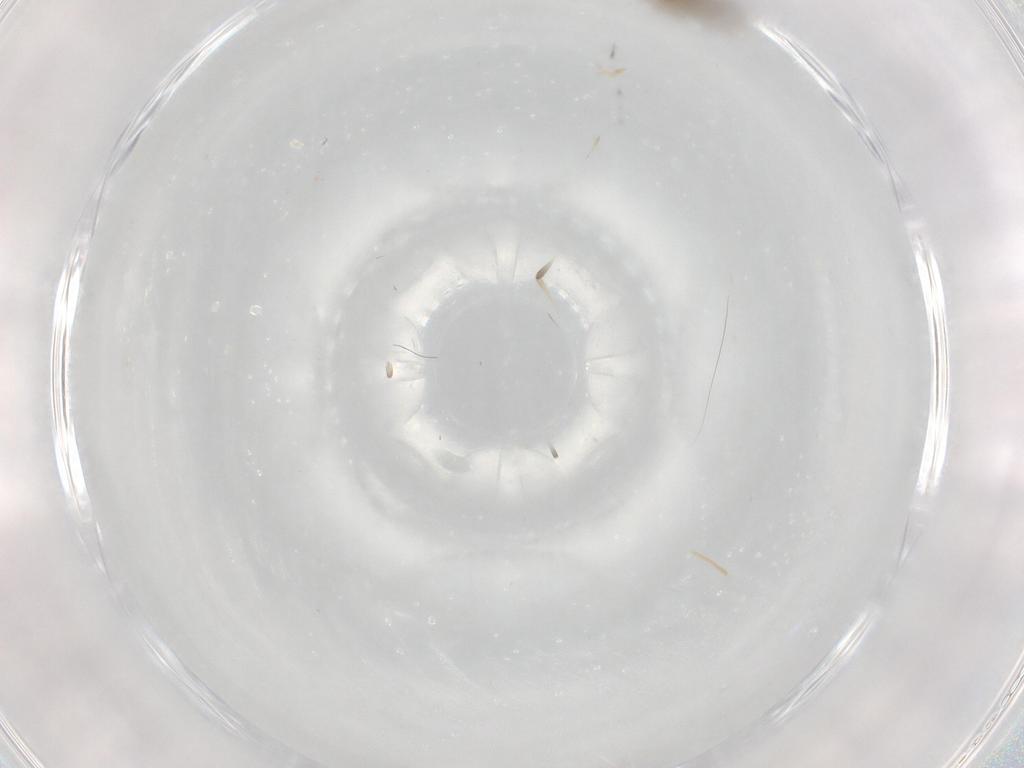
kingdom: Animalia
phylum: Arthropoda
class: Insecta
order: Diptera
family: Cecidomyiidae
